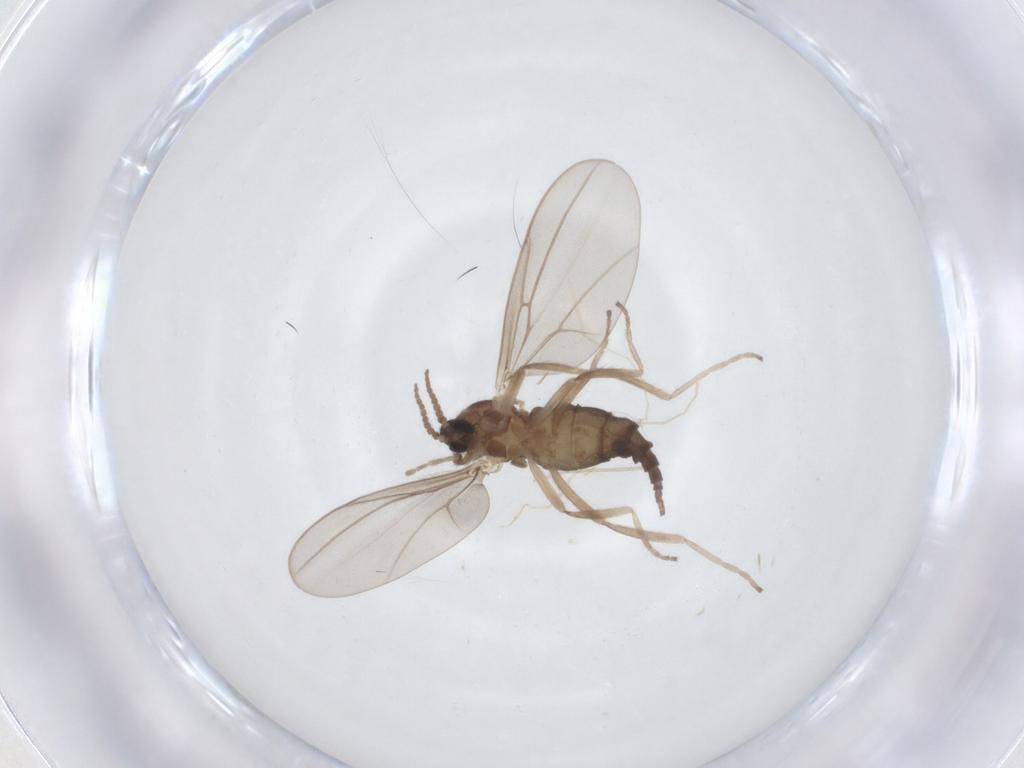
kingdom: Animalia
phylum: Arthropoda
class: Insecta
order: Diptera
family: Cecidomyiidae
